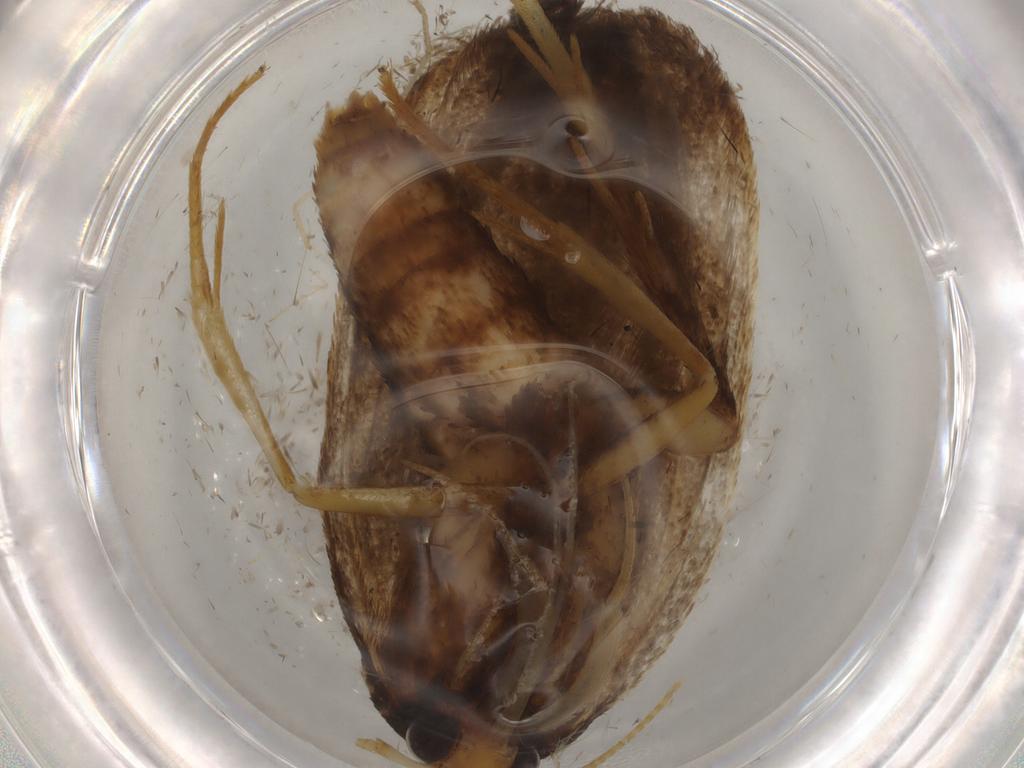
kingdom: Animalia
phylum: Arthropoda
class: Insecta
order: Lepidoptera
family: Lecithoceridae
